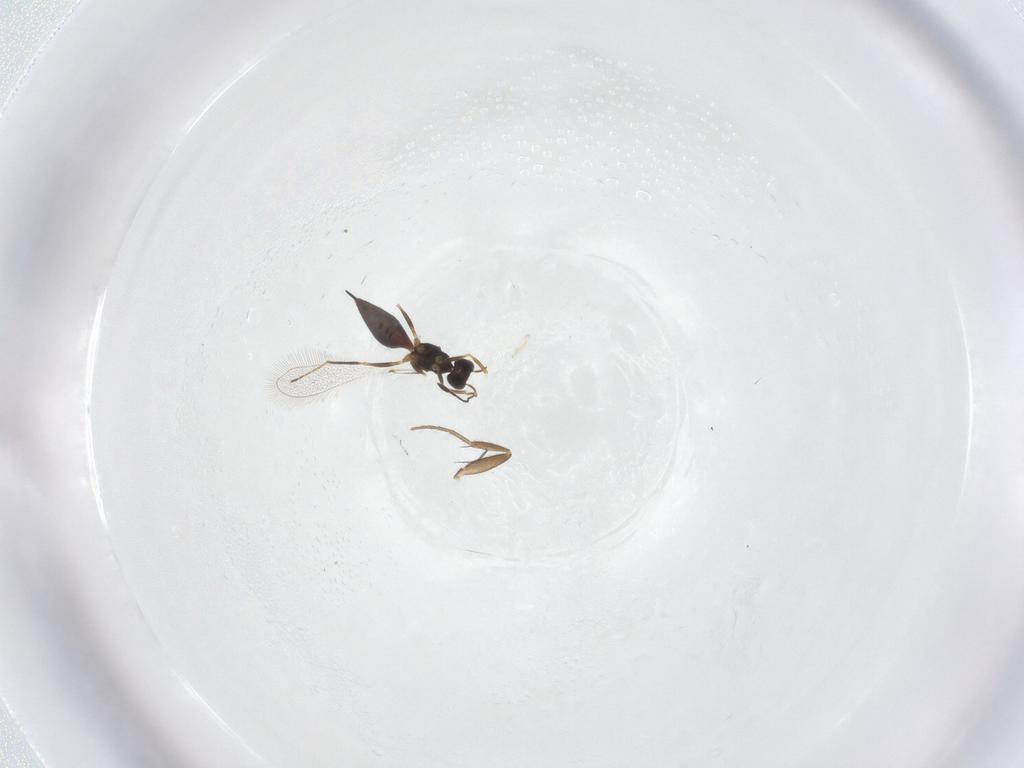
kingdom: Animalia
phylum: Arthropoda
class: Insecta
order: Hymenoptera
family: Mymaridae
